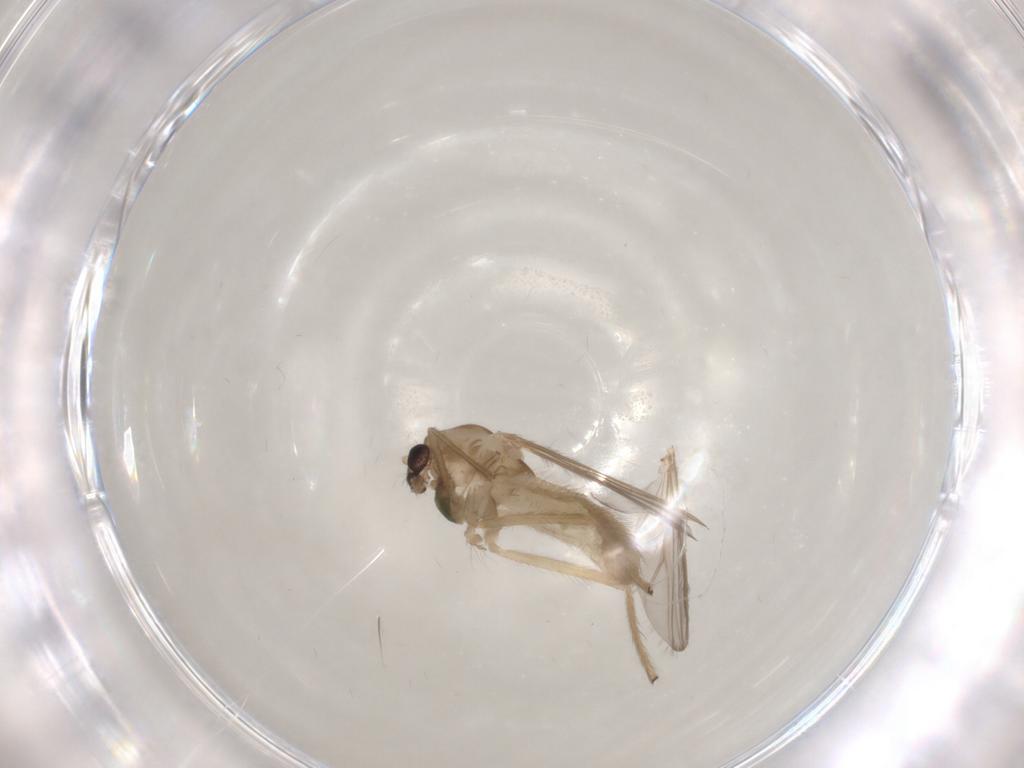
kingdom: Animalia
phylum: Arthropoda
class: Insecta
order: Diptera
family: Chironomidae
